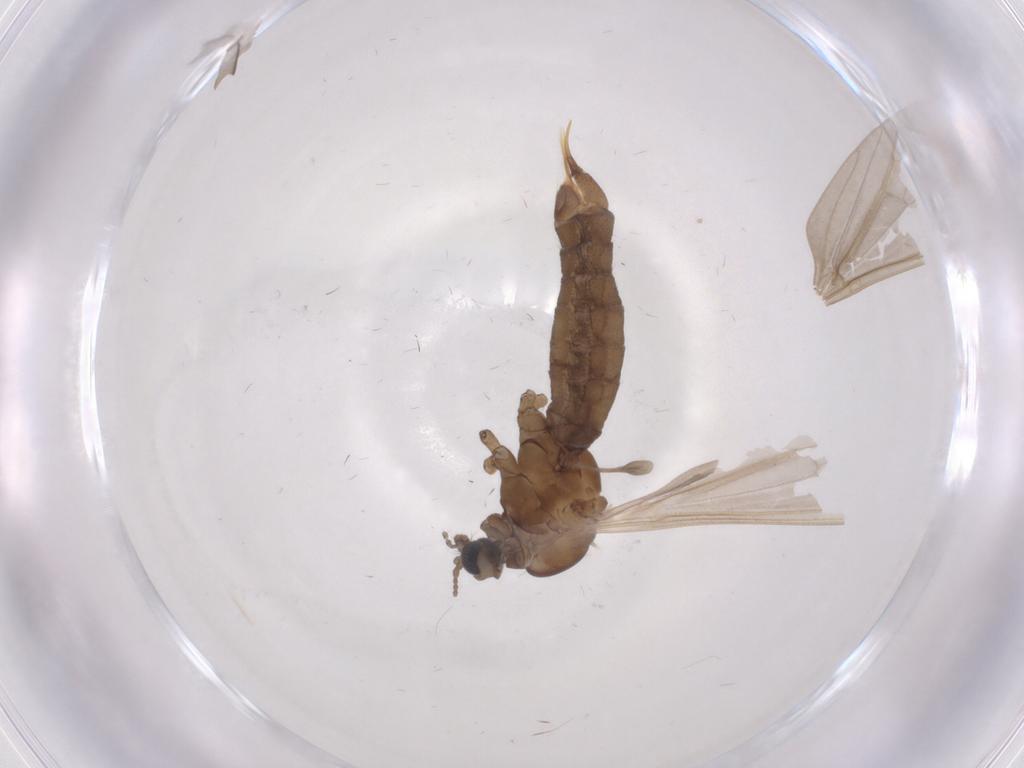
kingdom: Animalia
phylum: Arthropoda
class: Insecta
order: Diptera
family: Limoniidae
